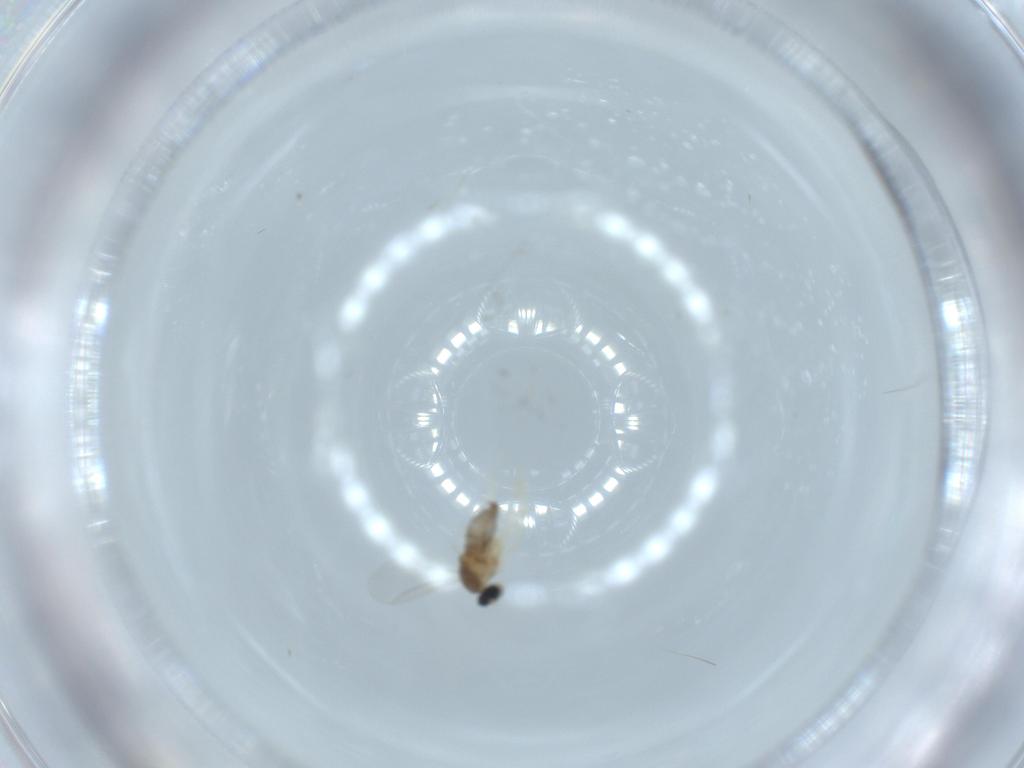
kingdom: Animalia
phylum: Arthropoda
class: Insecta
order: Diptera
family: Cecidomyiidae
